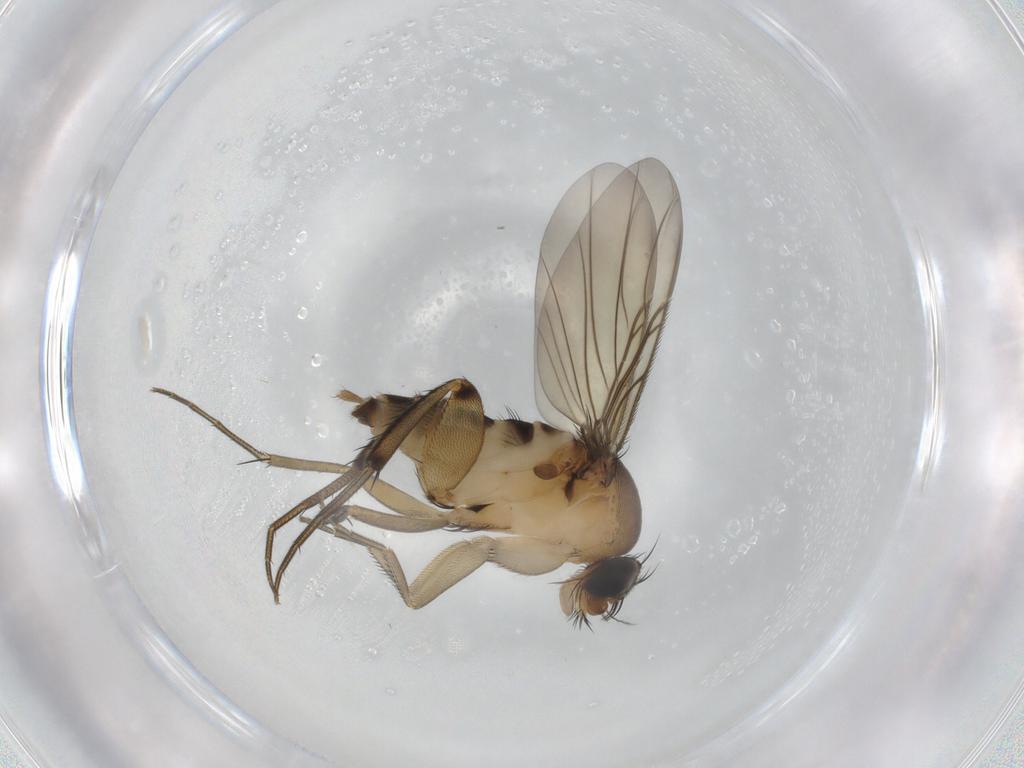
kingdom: Animalia
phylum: Arthropoda
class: Insecta
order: Diptera
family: Phoridae
